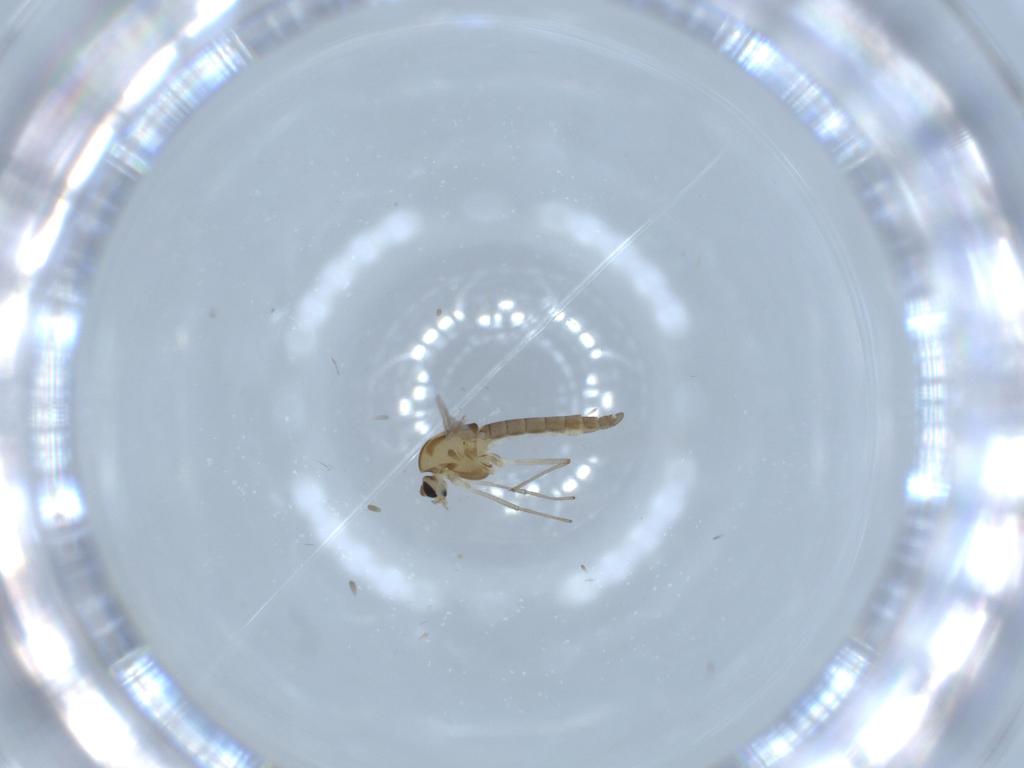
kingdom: Animalia
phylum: Arthropoda
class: Insecta
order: Diptera
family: Chironomidae
